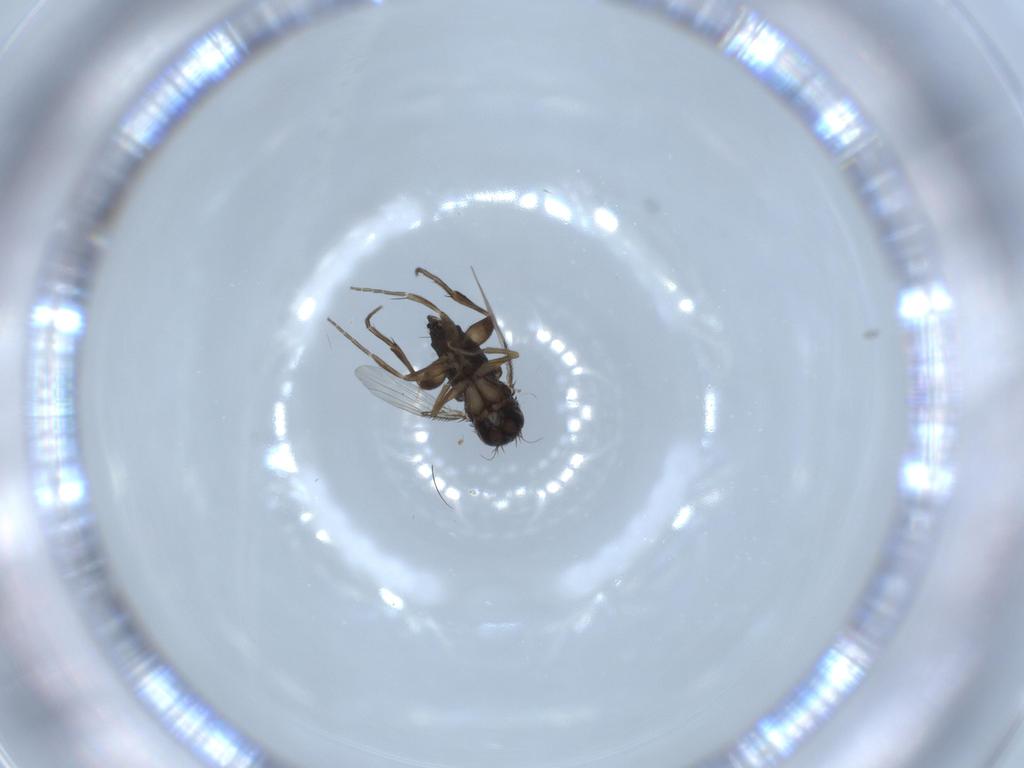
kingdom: Animalia
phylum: Arthropoda
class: Insecta
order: Diptera
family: Phoridae
